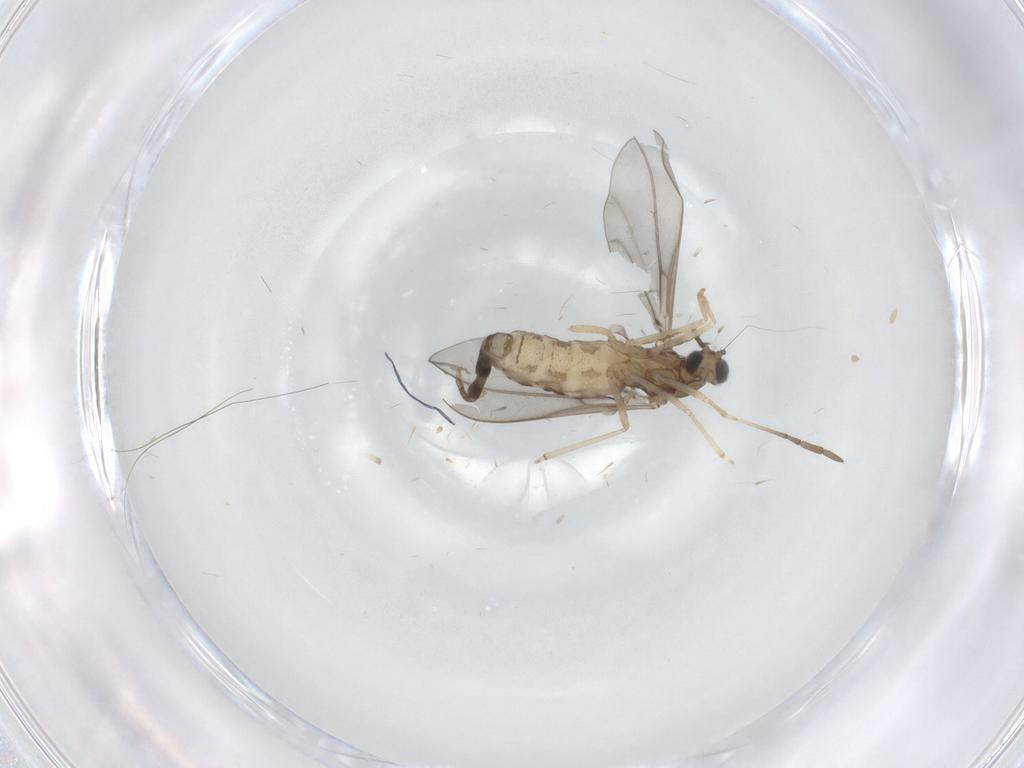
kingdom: Animalia
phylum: Arthropoda
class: Insecta
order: Diptera
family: Cecidomyiidae
